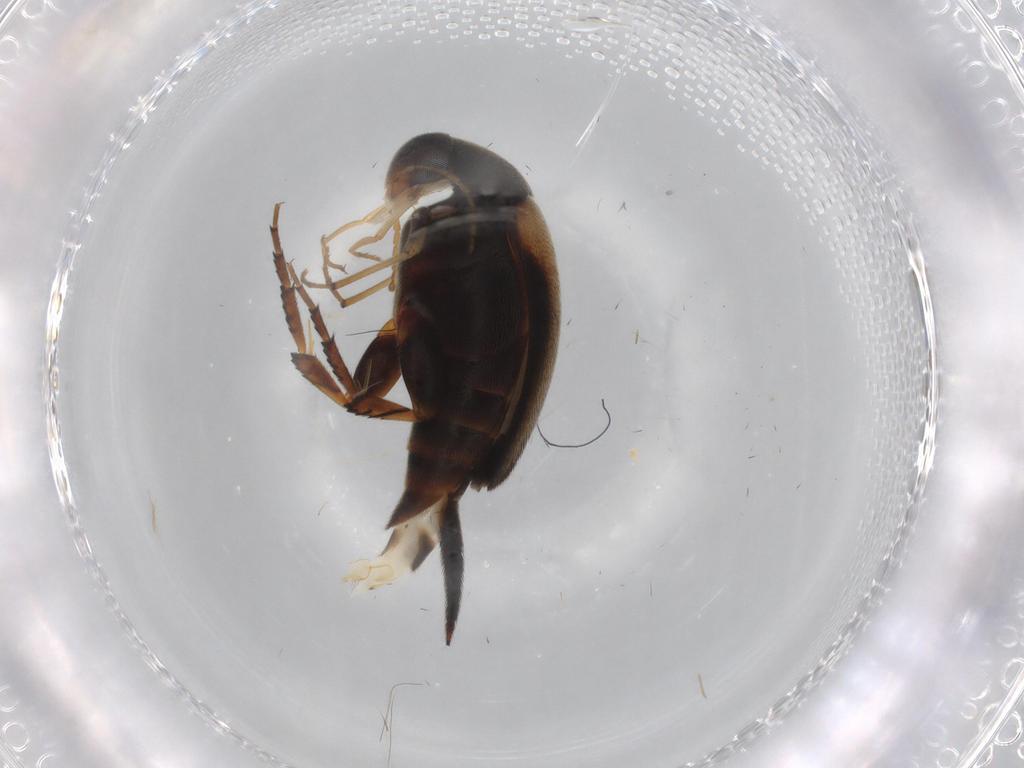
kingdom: Animalia
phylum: Arthropoda
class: Insecta
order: Coleoptera
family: Mordellidae
